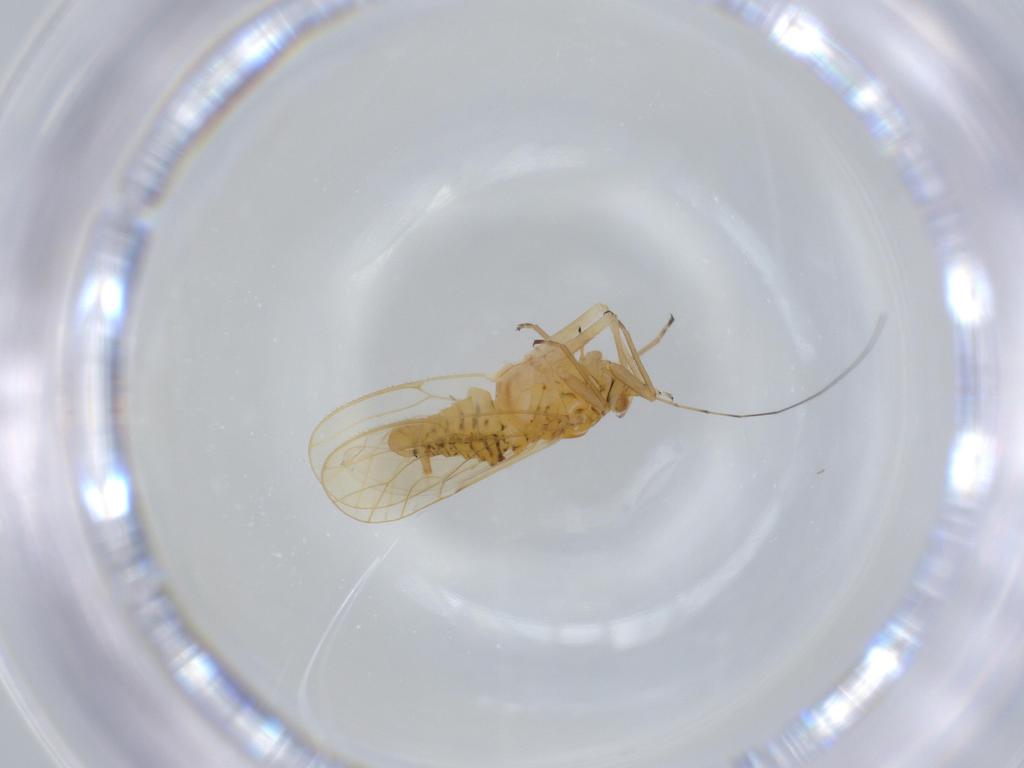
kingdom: Animalia
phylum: Arthropoda
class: Insecta
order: Hemiptera
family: Psyllidae
